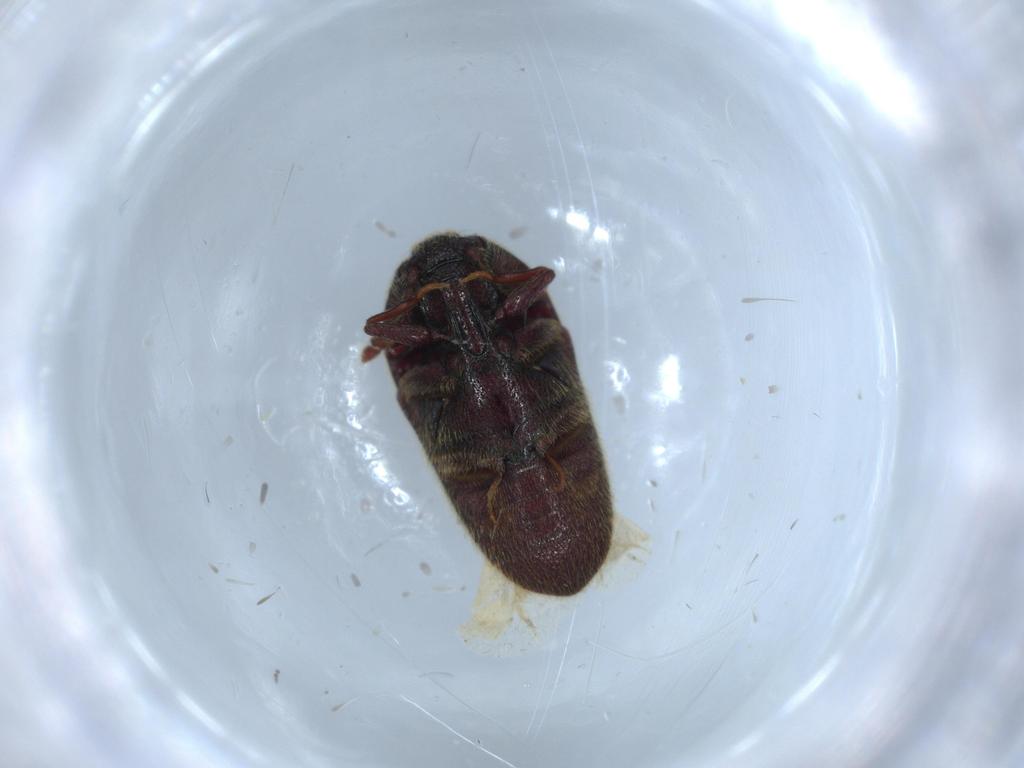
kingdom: Animalia
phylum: Arthropoda
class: Insecta
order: Coleoptera
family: Throscidae
